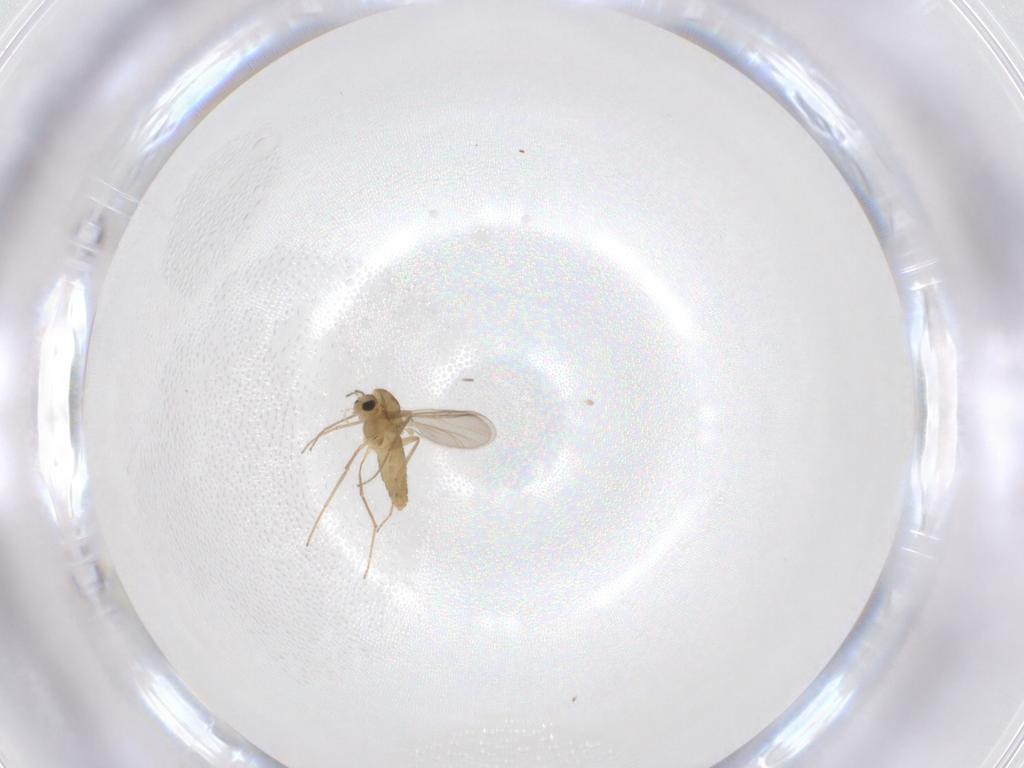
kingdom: Animalia
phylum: Arthropoda
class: Insecta
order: Diptera
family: Chironomidae
